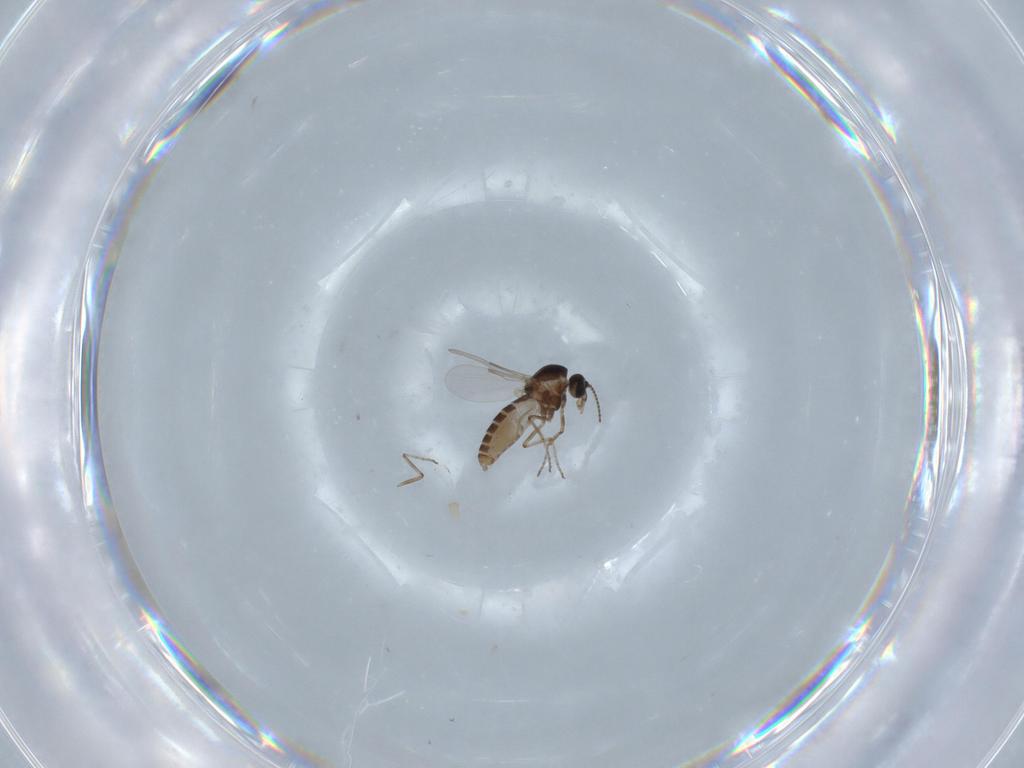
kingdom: Animalia
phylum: Arthropoda
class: Insecta
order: Diptera
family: Ceratopogonidae
